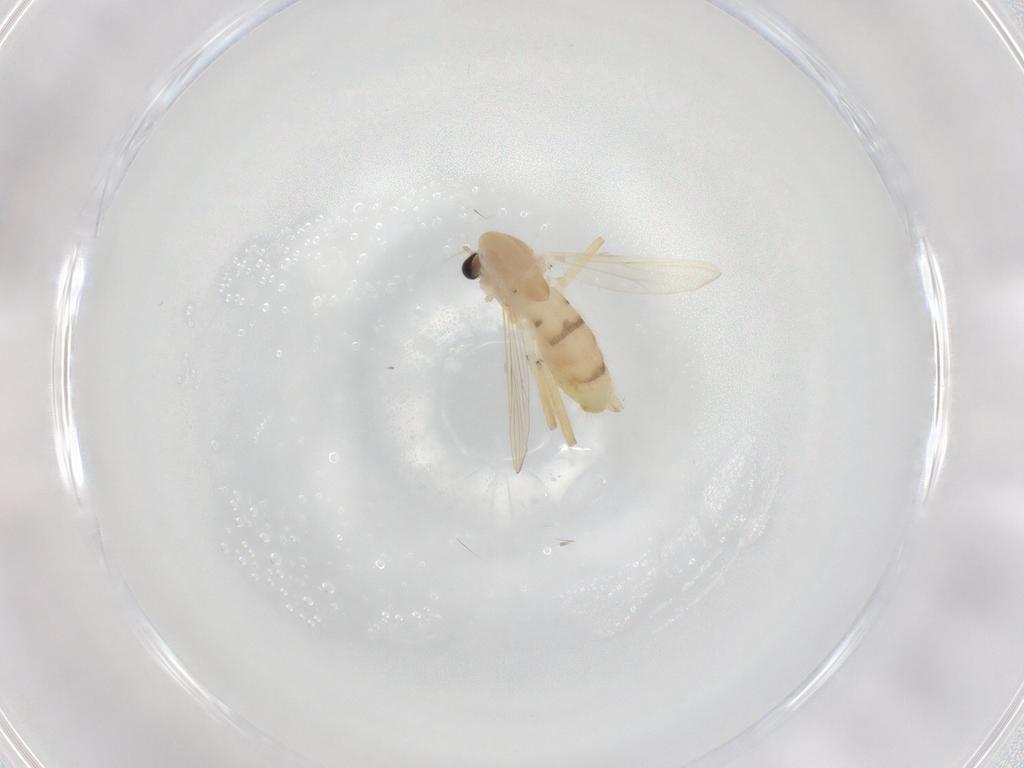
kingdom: Animalia
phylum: Arthropoda
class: Insecta
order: Diptera
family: Chironomidae
